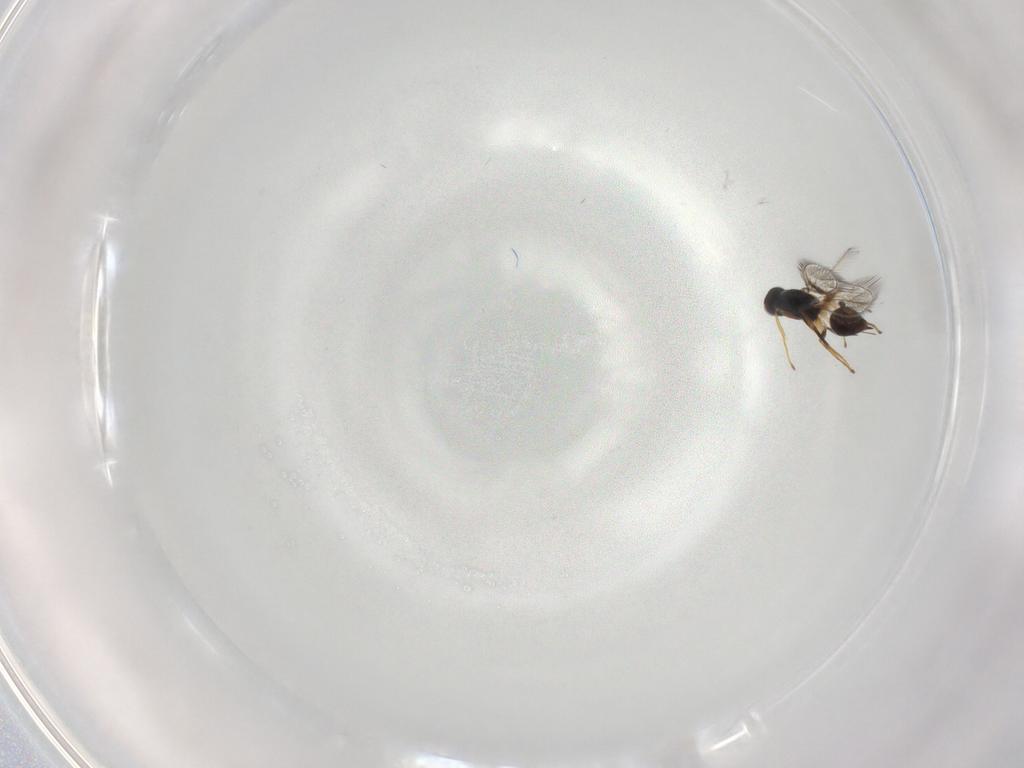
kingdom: Animalia
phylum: Arthropoda
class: Insecta
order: Hymenoptera
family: Mymaridae
